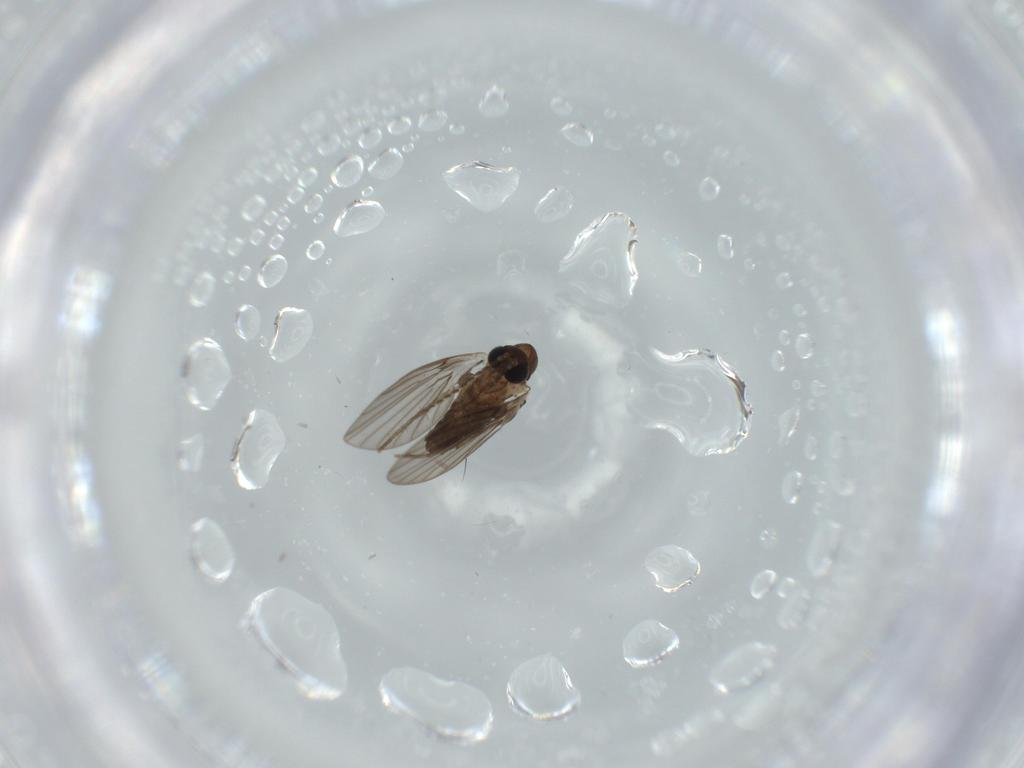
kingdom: Animalia
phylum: Arthropoda
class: Insecta
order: Diptera
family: Psychodidae
